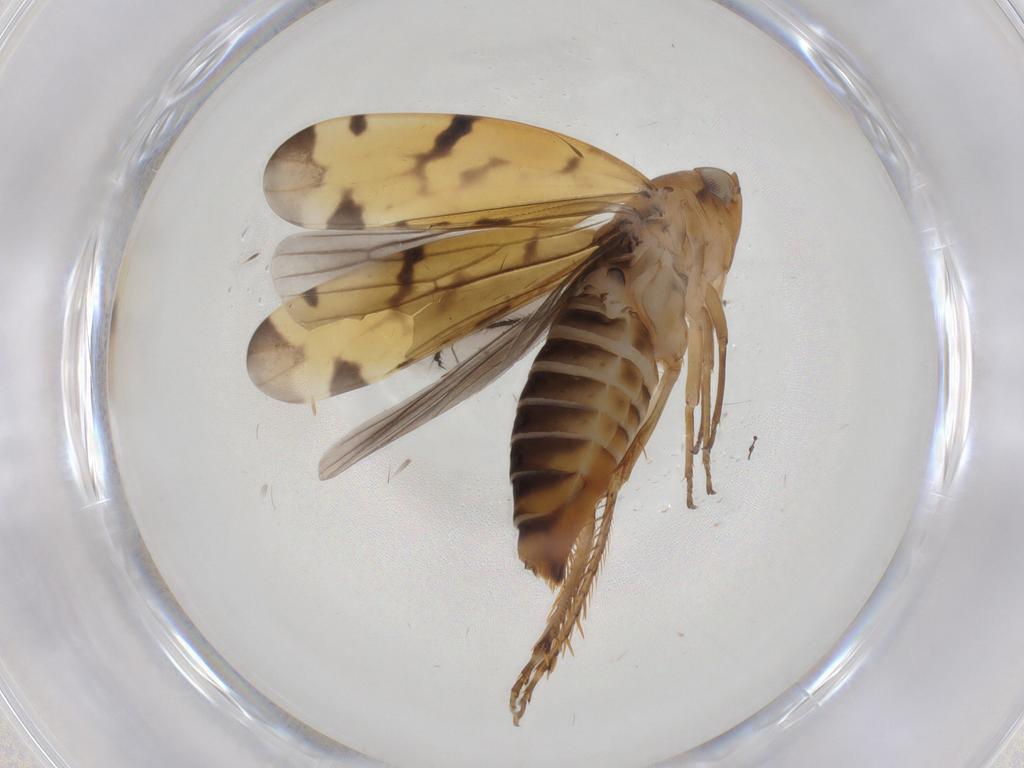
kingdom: Animalia
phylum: Arthropoda
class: Insecta
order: Hemiptera
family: Cicadellidae
